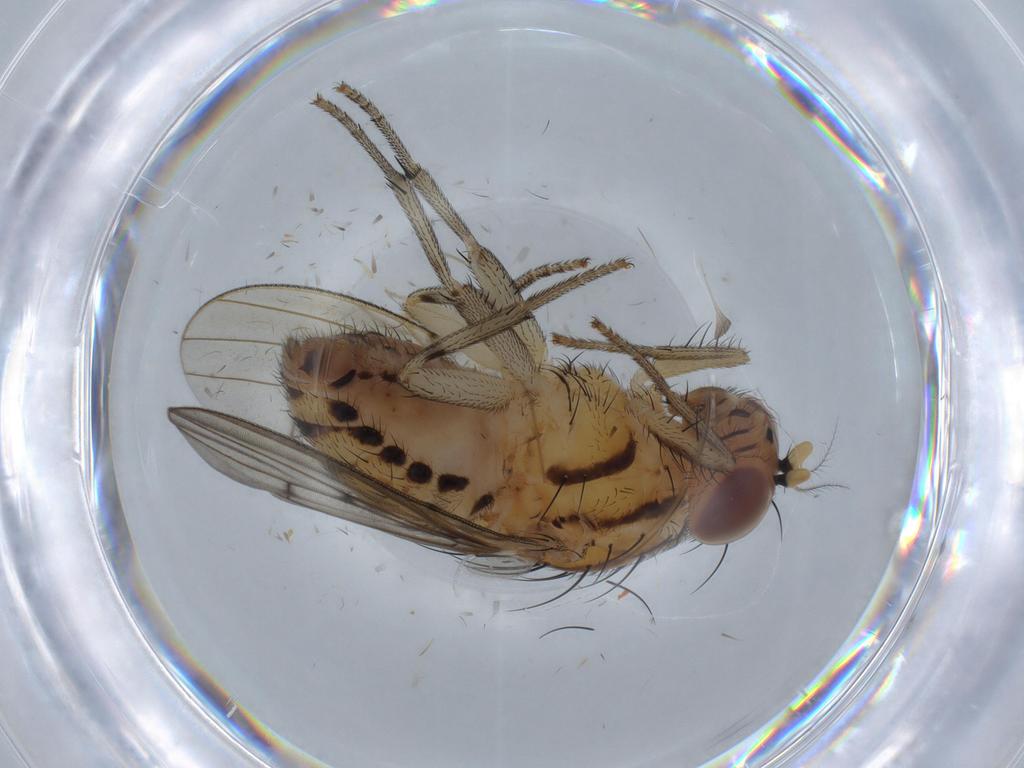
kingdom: Animalia
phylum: Arthropoda
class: Insecta
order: Diptera
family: Lauxaniidae
